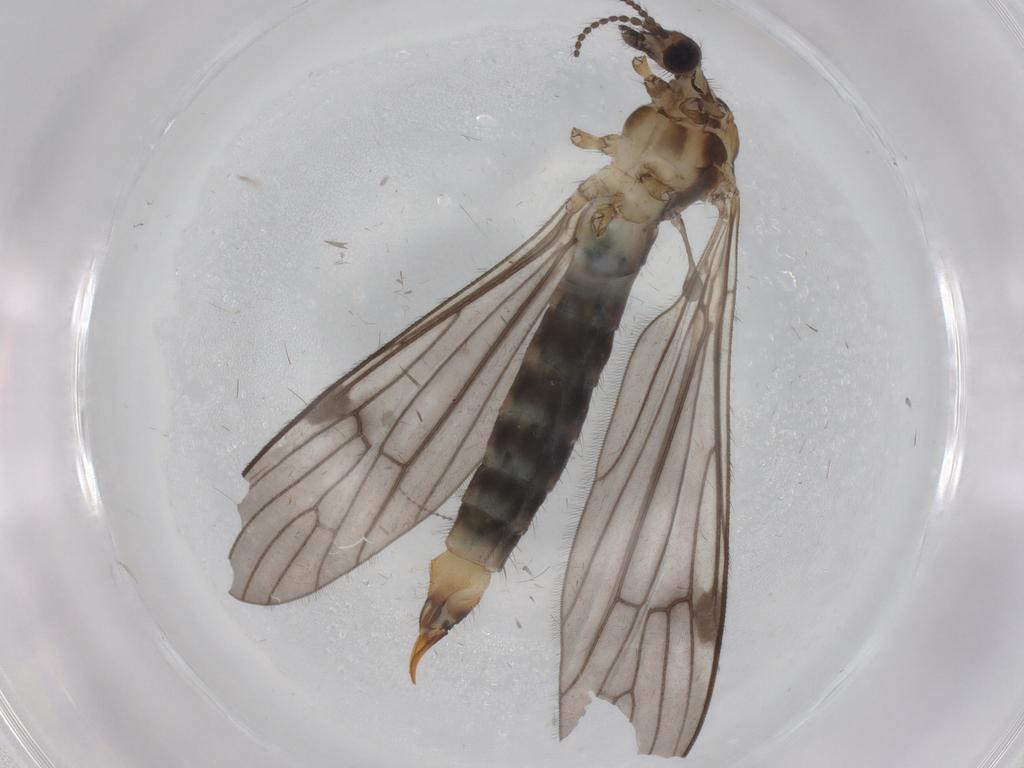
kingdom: Animalia
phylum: Arthropoda
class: Insecta
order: Diptera
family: Limoniidae
